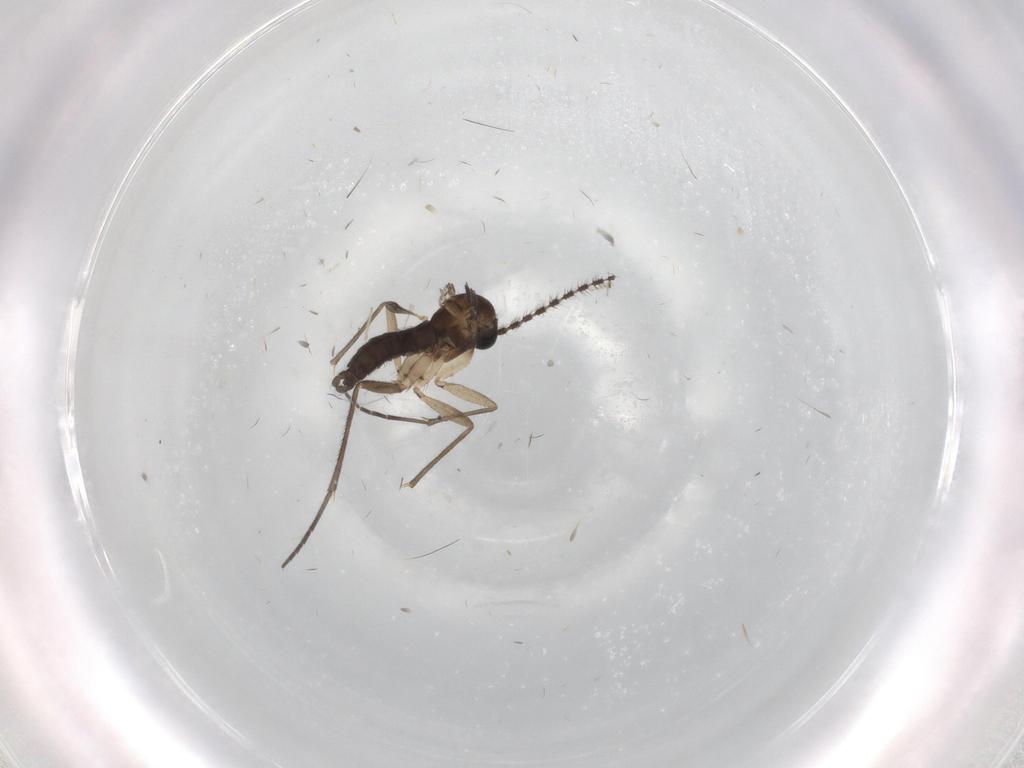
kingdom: Animalia
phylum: Arthropoda
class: Insecta
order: Diptera
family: Sciaridae
